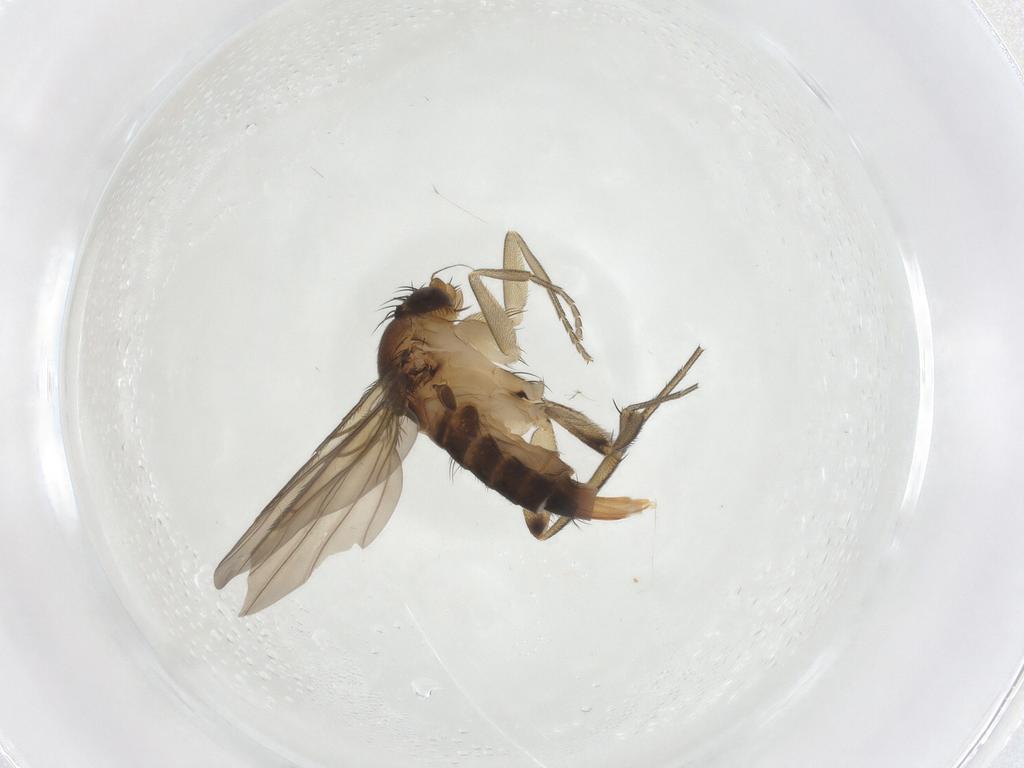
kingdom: Animalia
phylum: Arthropoda
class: Insecta
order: Diptera
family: Phoridae
